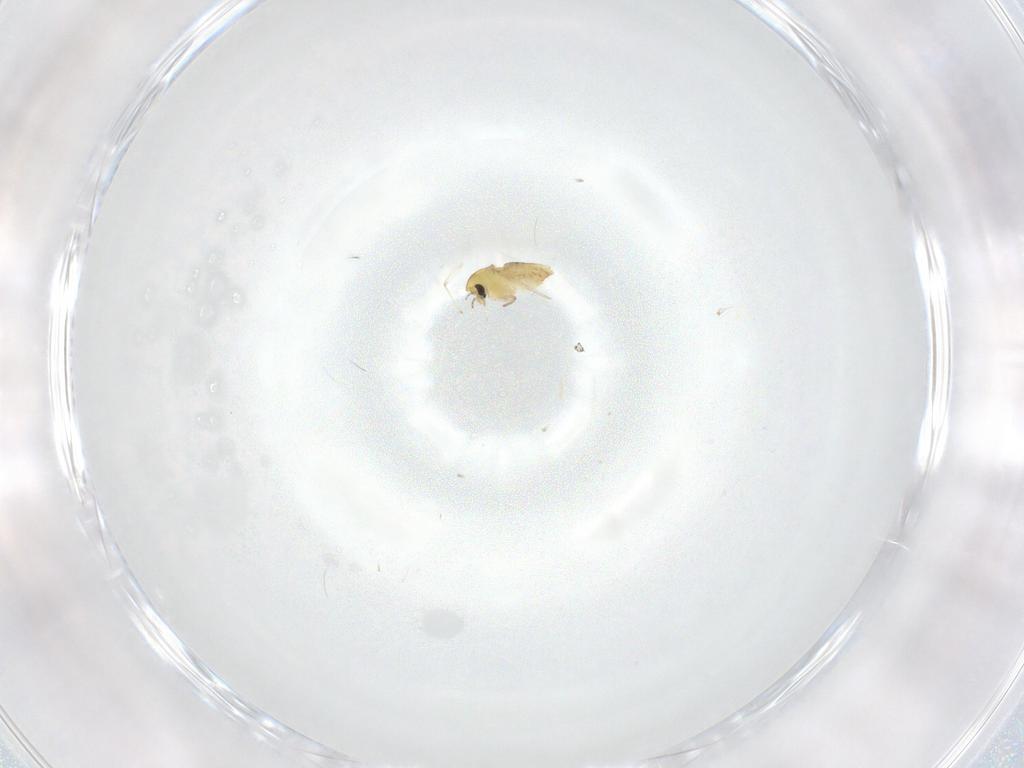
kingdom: Animalia
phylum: Arthropoda
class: Insecta
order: Diptera
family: Chironomidae
